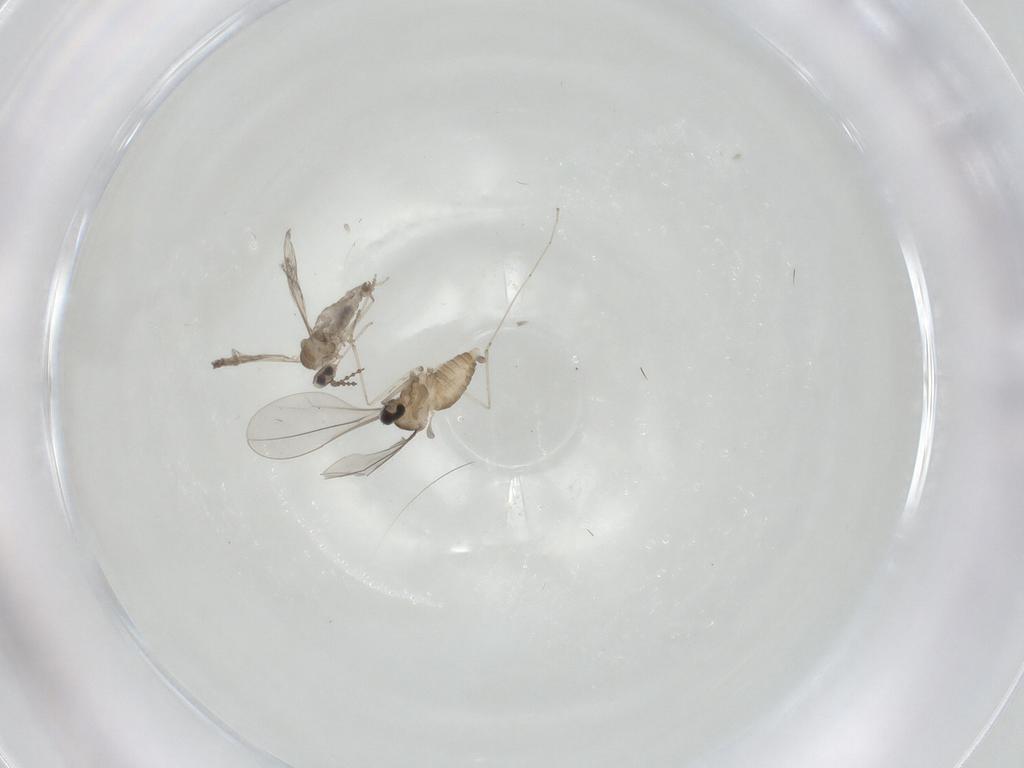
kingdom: Animalia
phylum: Arthropoda
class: Insecta
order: Diptera
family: Cecidomyiidae
